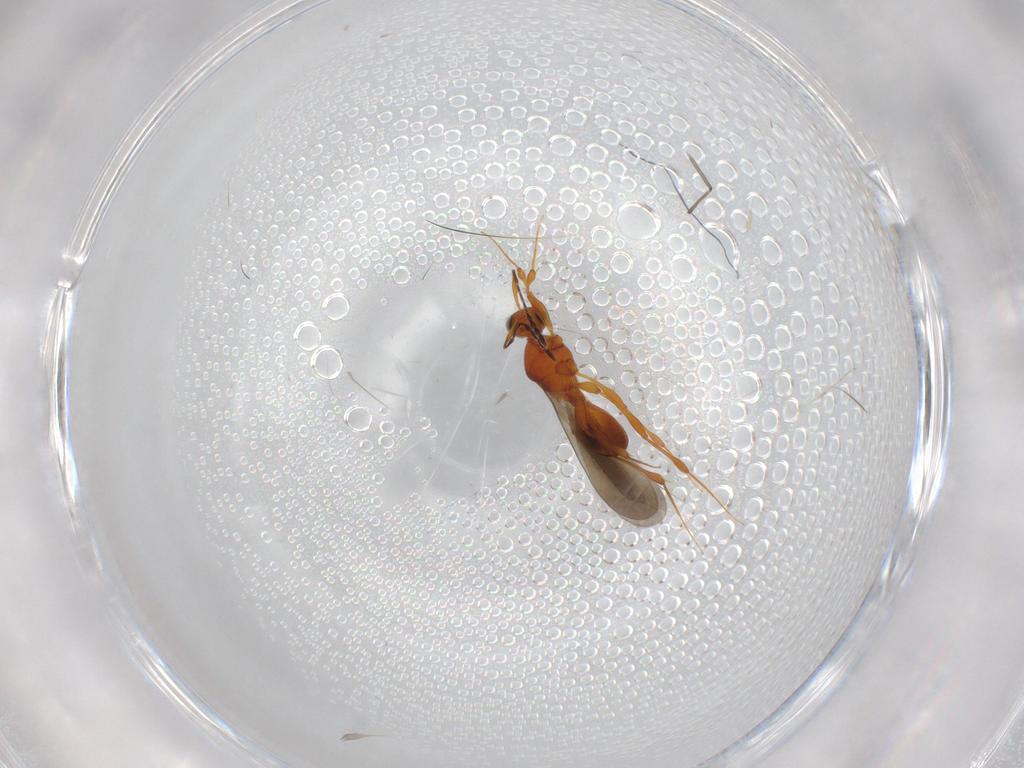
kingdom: Animalia
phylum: Arthropoda
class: Insecta
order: Hymenoptera
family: Platygastridae
